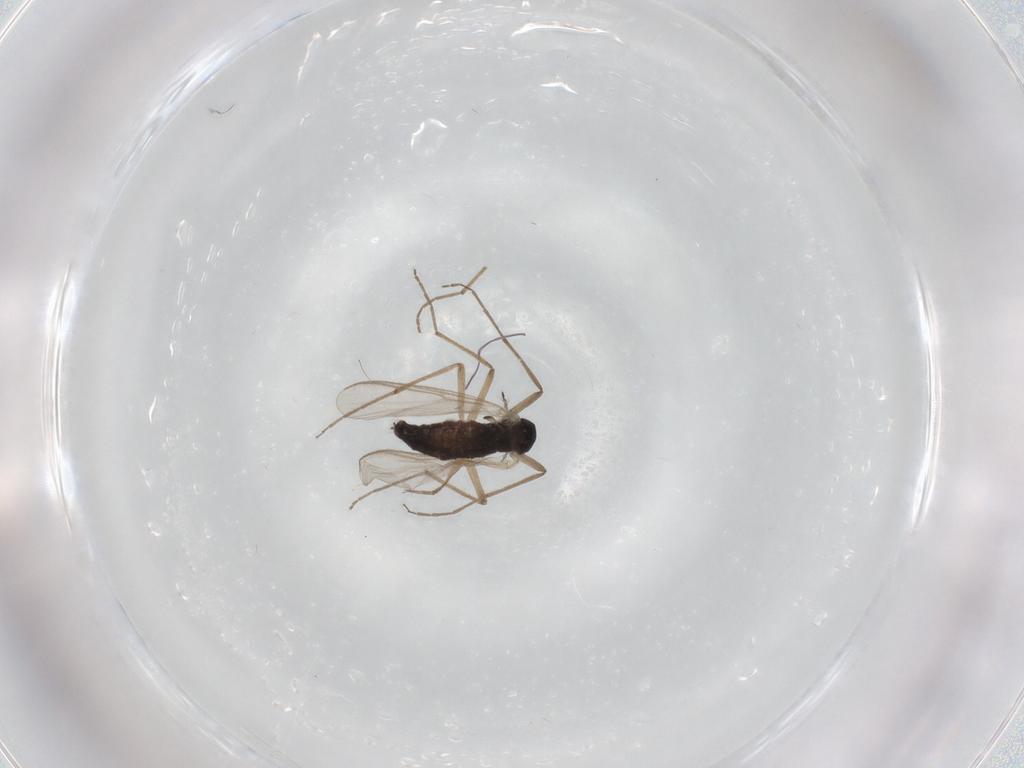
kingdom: Animalia
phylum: Arthropoda
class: Insecta
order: Diptera
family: Chironomidae
